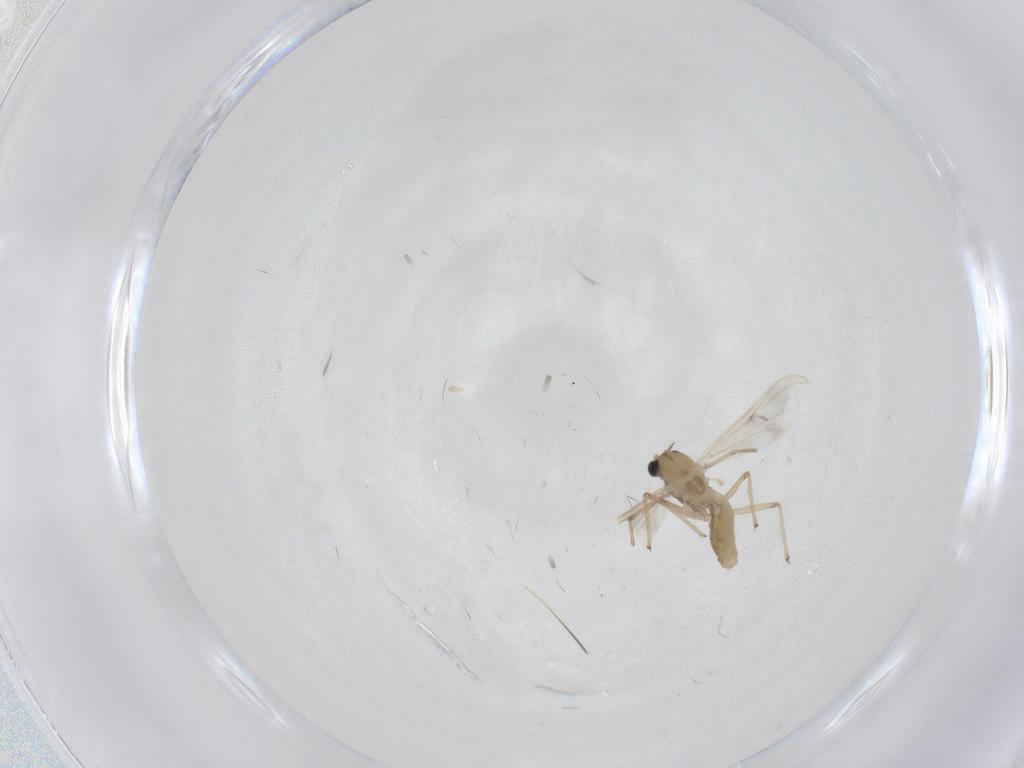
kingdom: Animalia
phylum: Arthropoda
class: Insecta
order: Diptera
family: Chironomidae
